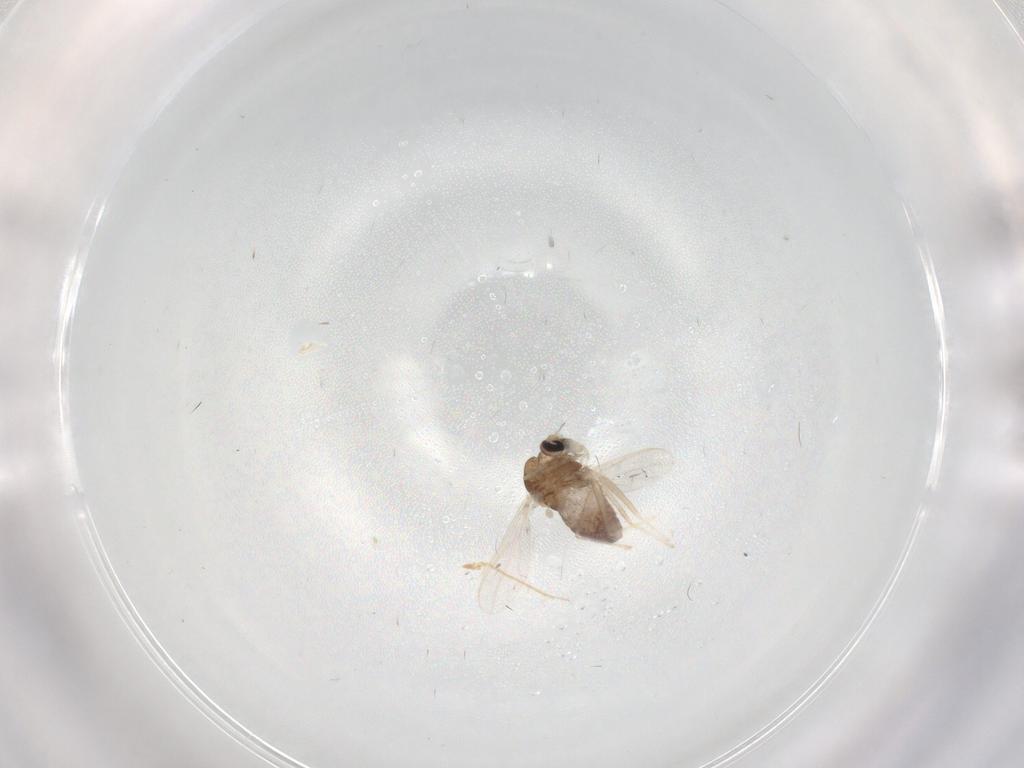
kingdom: Animalia
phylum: Arthropoda
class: Insecta
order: Diptera
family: Chironomidae
